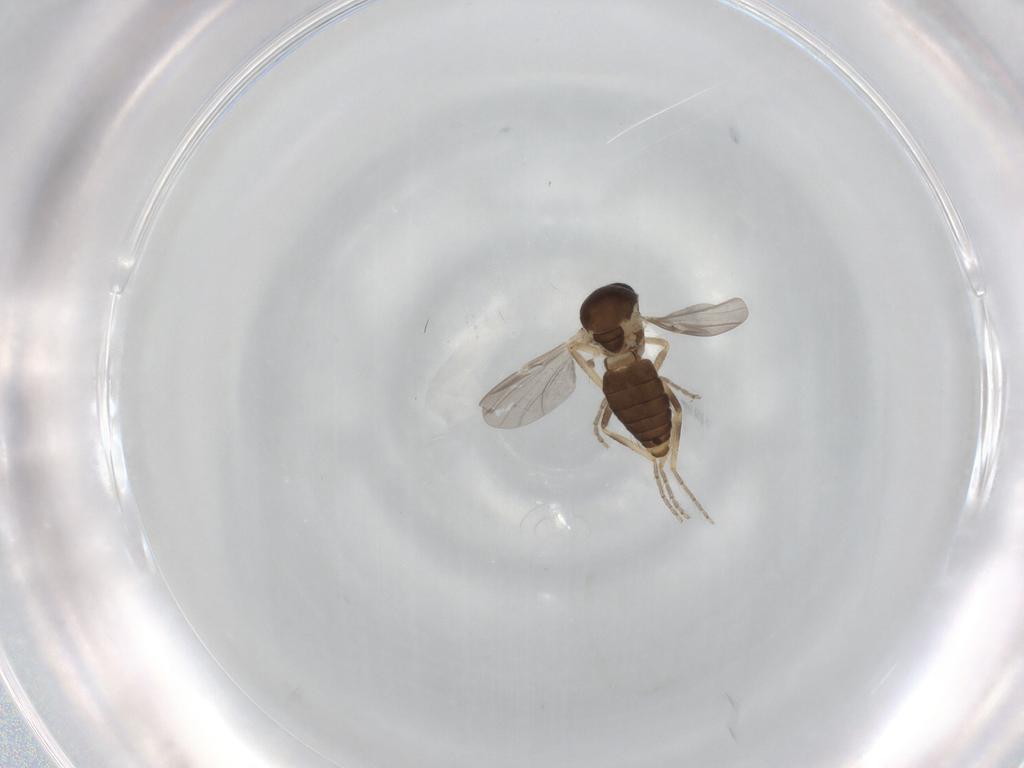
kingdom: Animalia
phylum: Arthropoda
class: Insecta
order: Diptera
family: Ceratopogonidae
